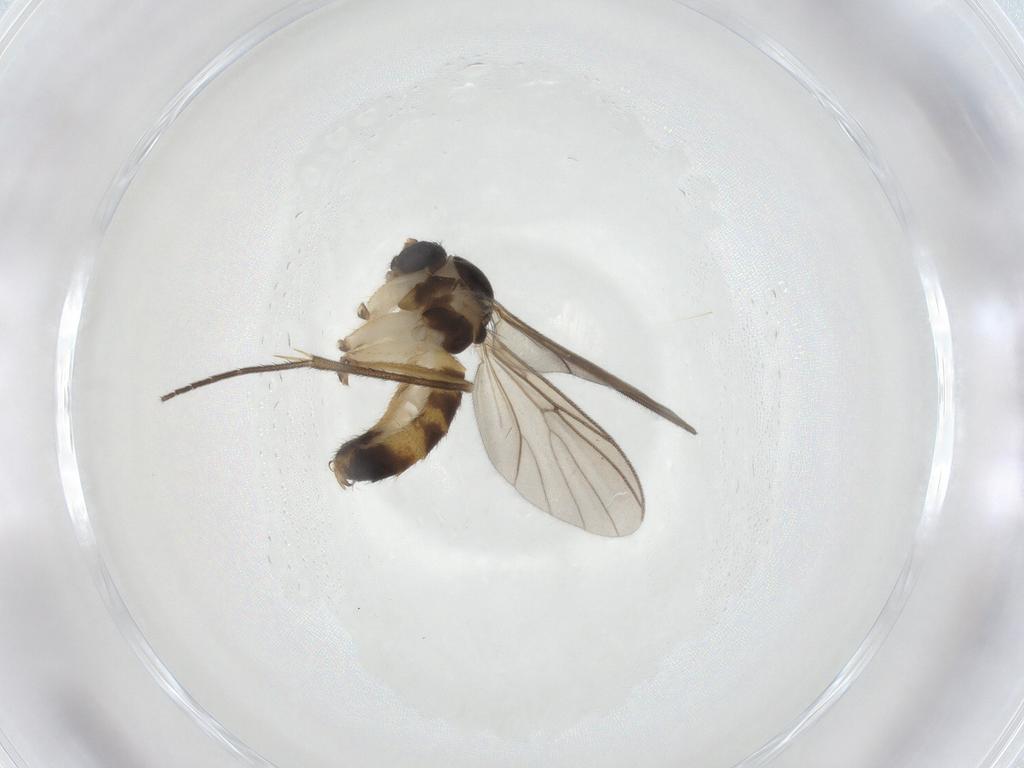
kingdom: Animalia
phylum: Arthropoda
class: Insecta
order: Diptera
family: Mycetophilidae
